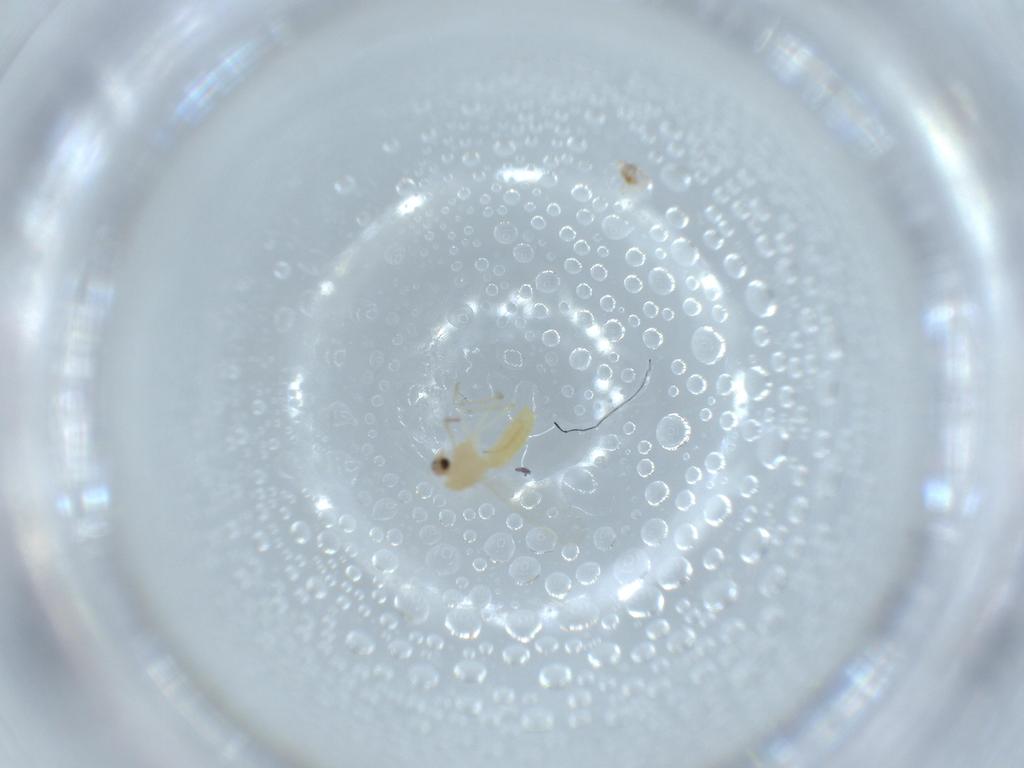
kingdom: Animalia
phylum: Arthropoda
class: Insecta
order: Diptera
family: Chironomidae
